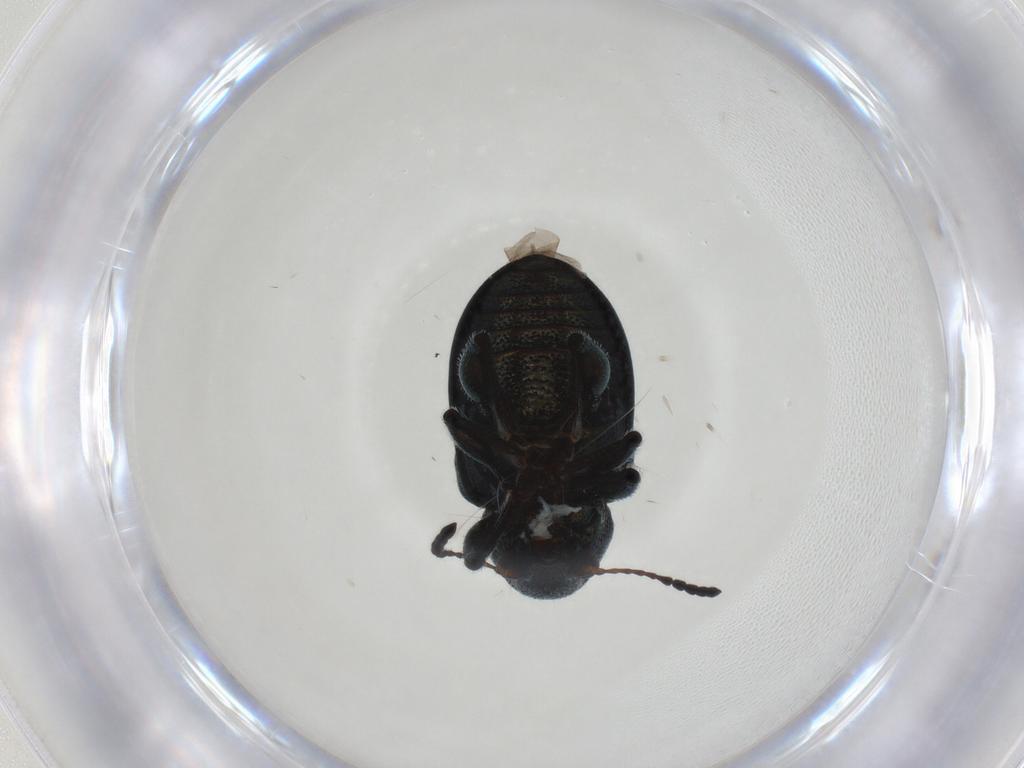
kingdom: Animalia
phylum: Arthropoda
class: Insecta
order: Coleoptera
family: Chrysomelidae
